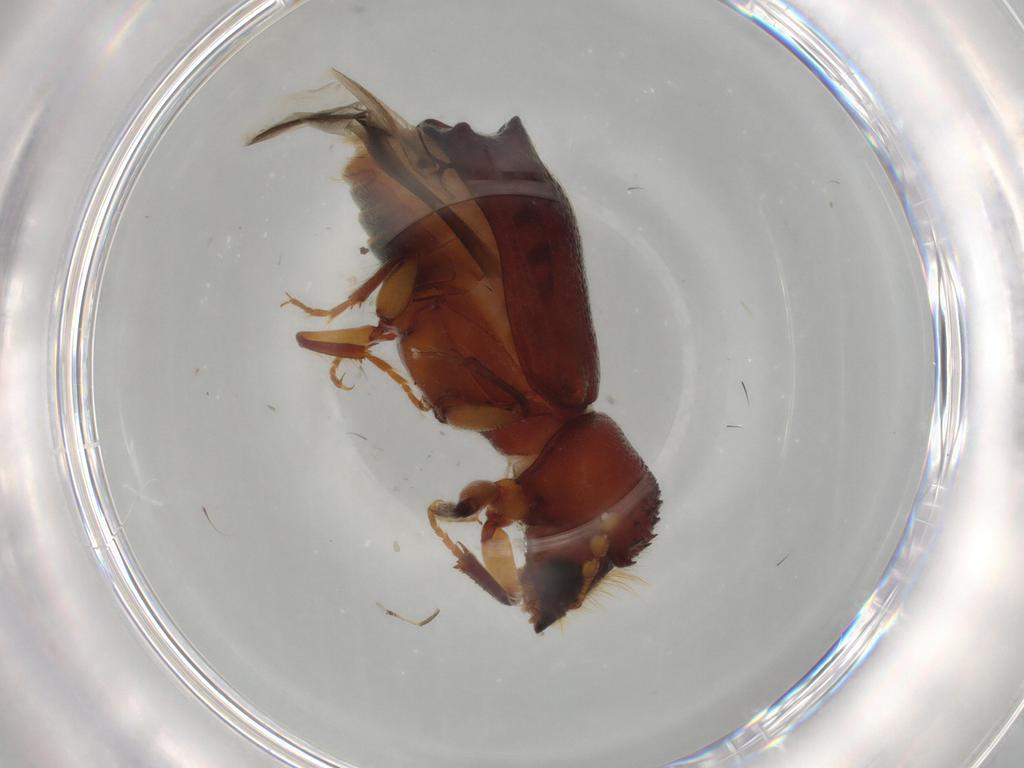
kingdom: Animalia
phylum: Arthropoda
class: Insecta
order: Coleoptera
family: Bostrichidae
